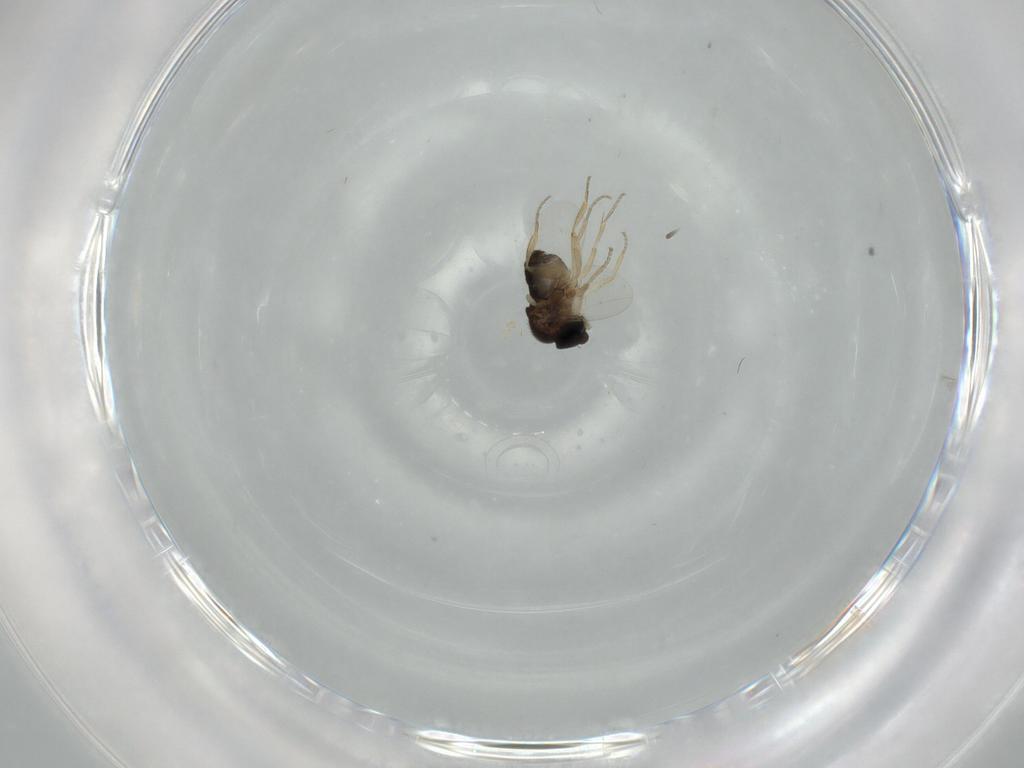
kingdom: Animalia
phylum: Arthropoda
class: Insecta
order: Diptera
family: Phoridae
